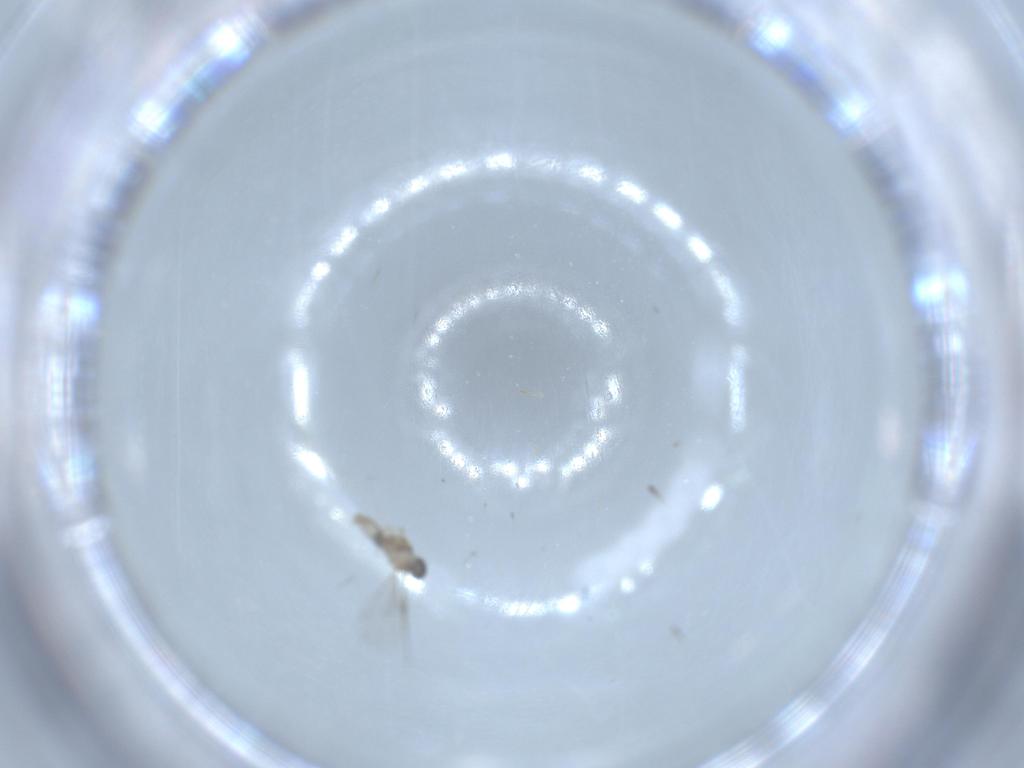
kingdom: Animalia
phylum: Arthropoda
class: Insecta
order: Diptera
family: Cecidomyiidae
